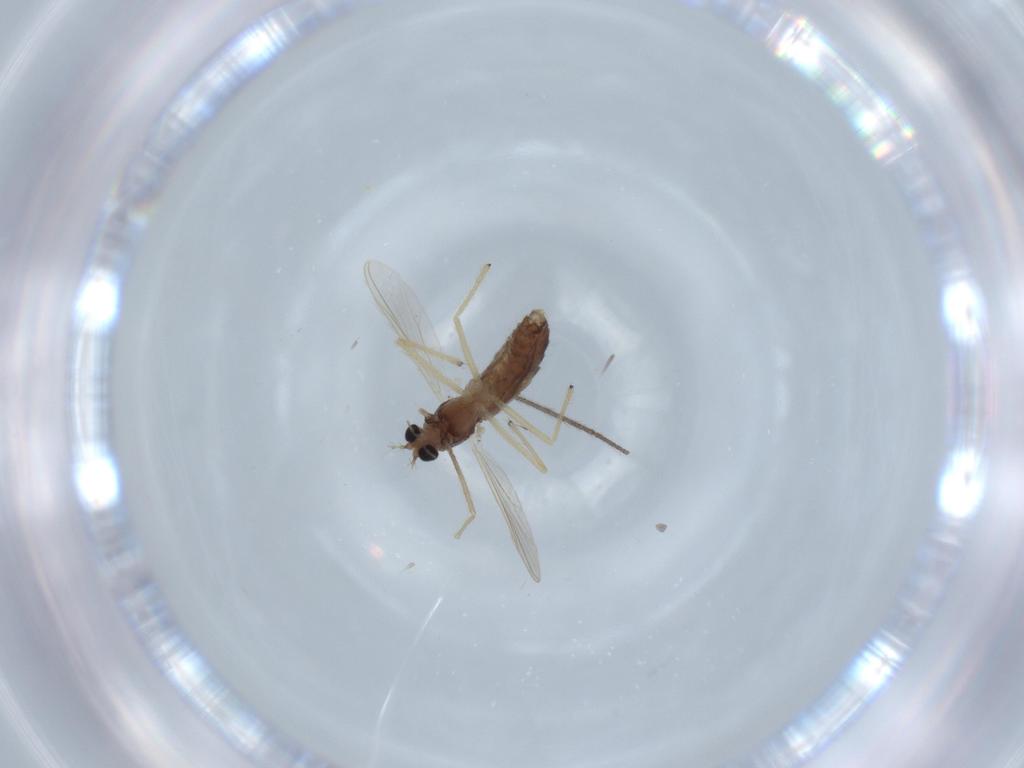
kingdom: Animalia
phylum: Arthropoda
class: Insecta
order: Diptera
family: Chironomidae
